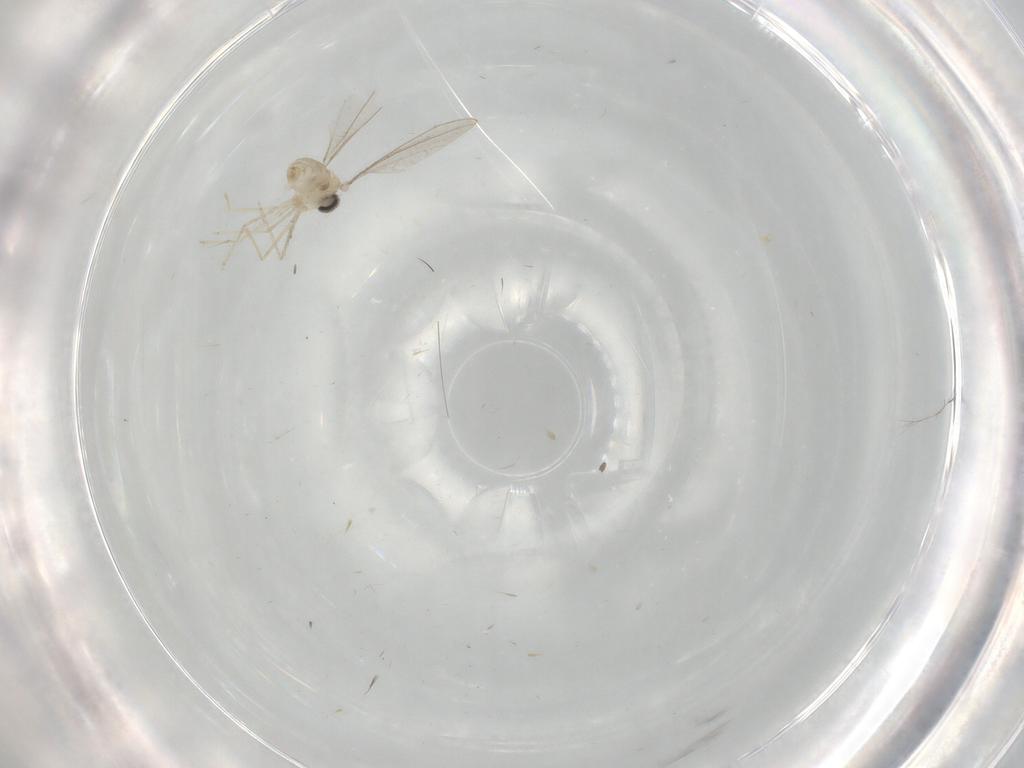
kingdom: Animalia
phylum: Arthropoda
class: Insecta
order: Diptera
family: Cecidomyiidae
